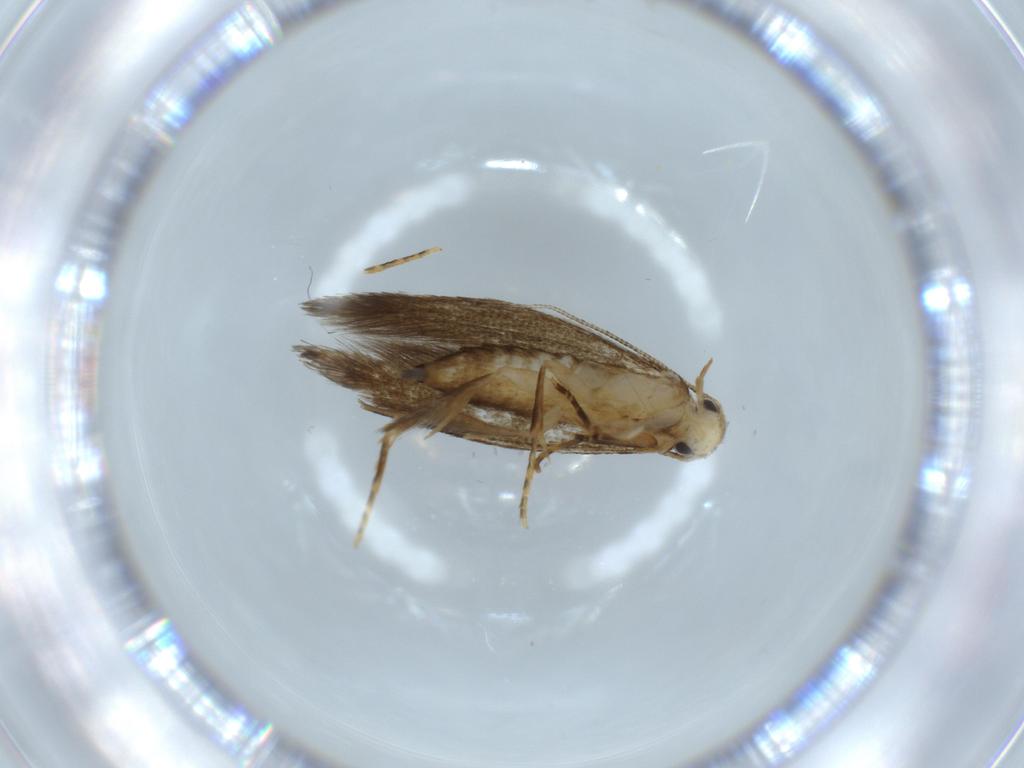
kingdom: Animalia
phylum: Arthropoda
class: Insecta
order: Lepidoptera
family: Tineidae
